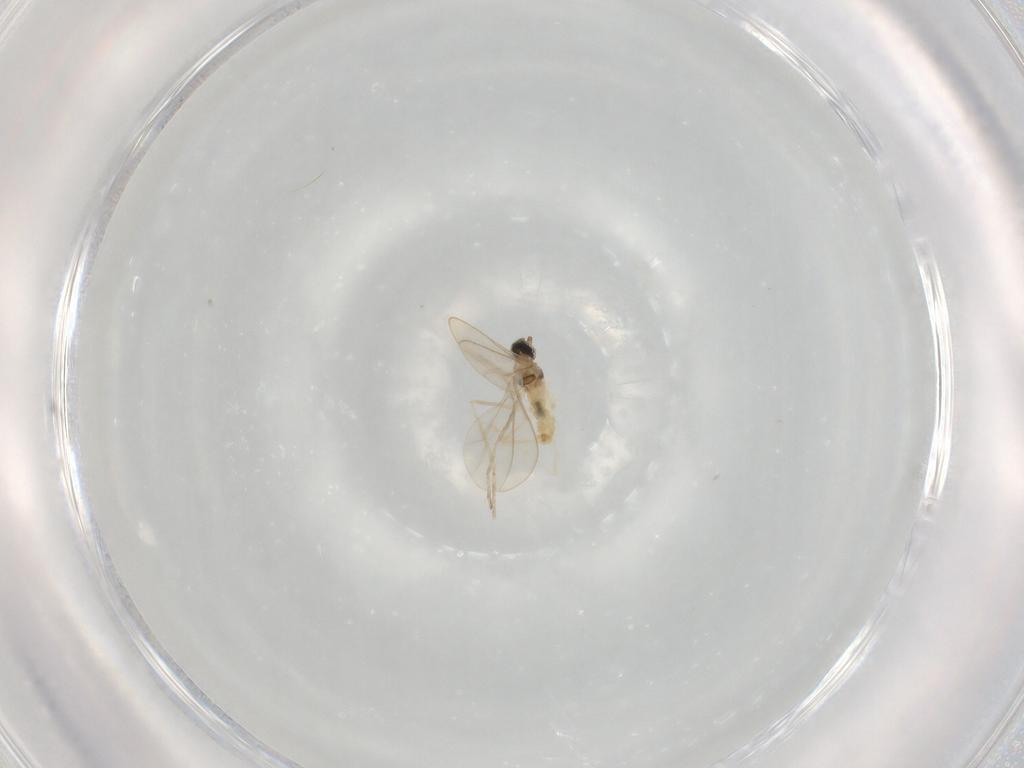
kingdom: Animalia
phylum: Arthropoda
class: Insecta
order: Diptera
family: Cecidomyiidae
